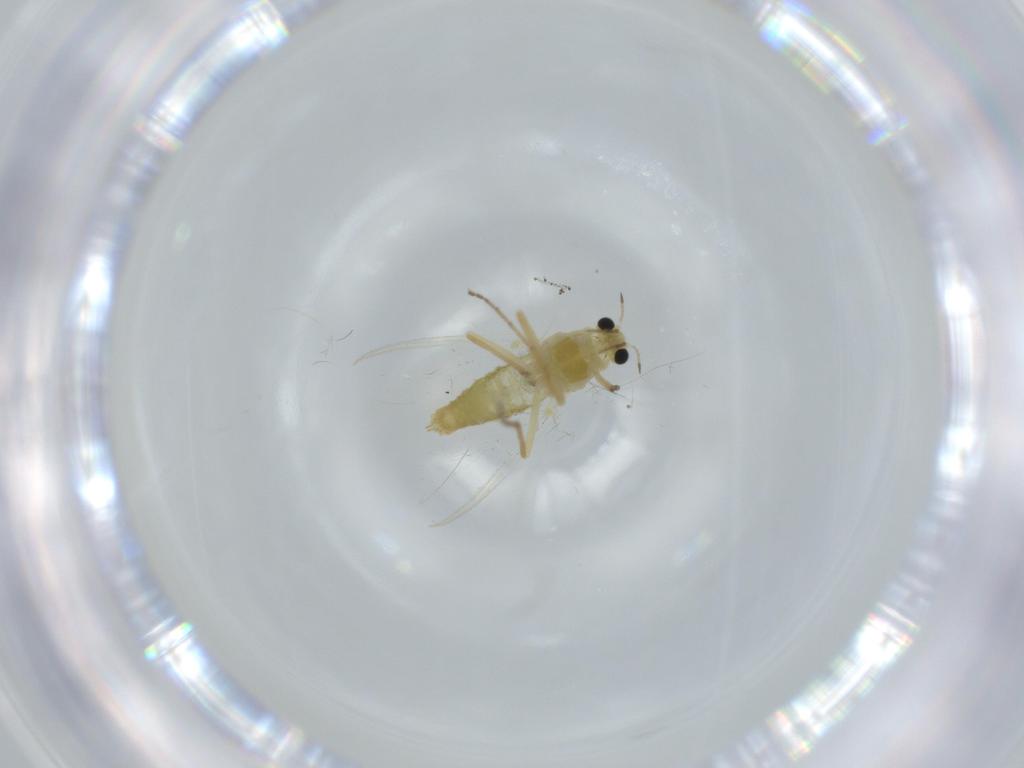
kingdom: Animalia
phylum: Arthropoda
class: Insecta
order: Diptera
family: Chironomidae
